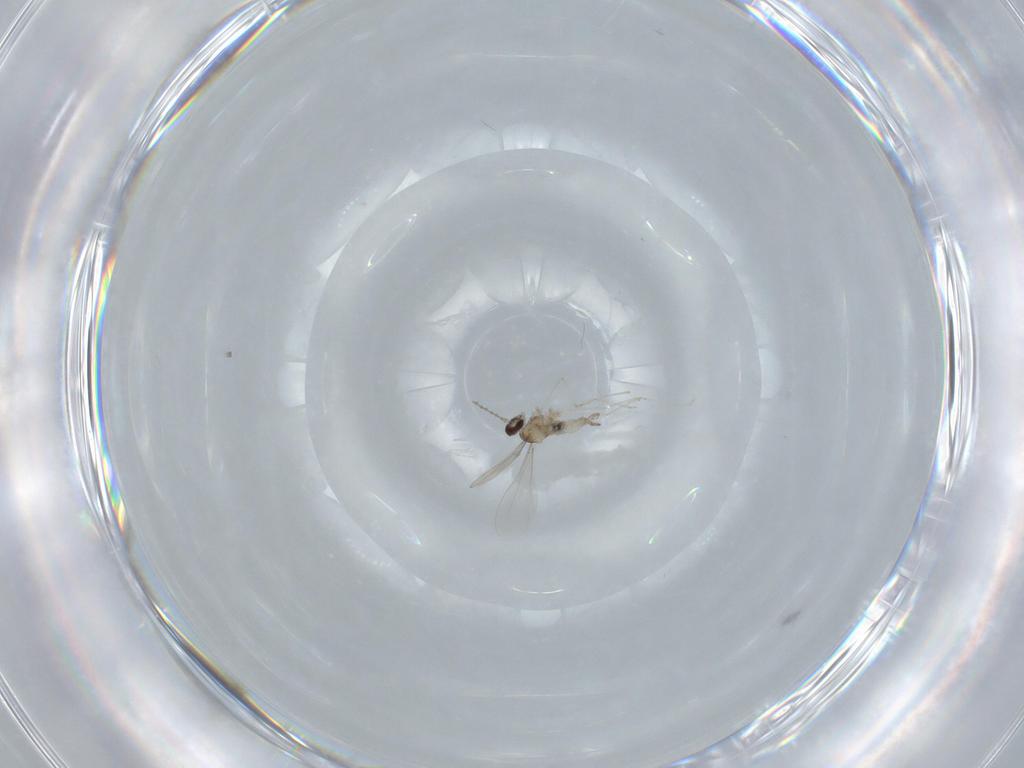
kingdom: Animalia
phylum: Arthropoda
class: Insecta
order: Diptera
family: Cecidomyiidae
